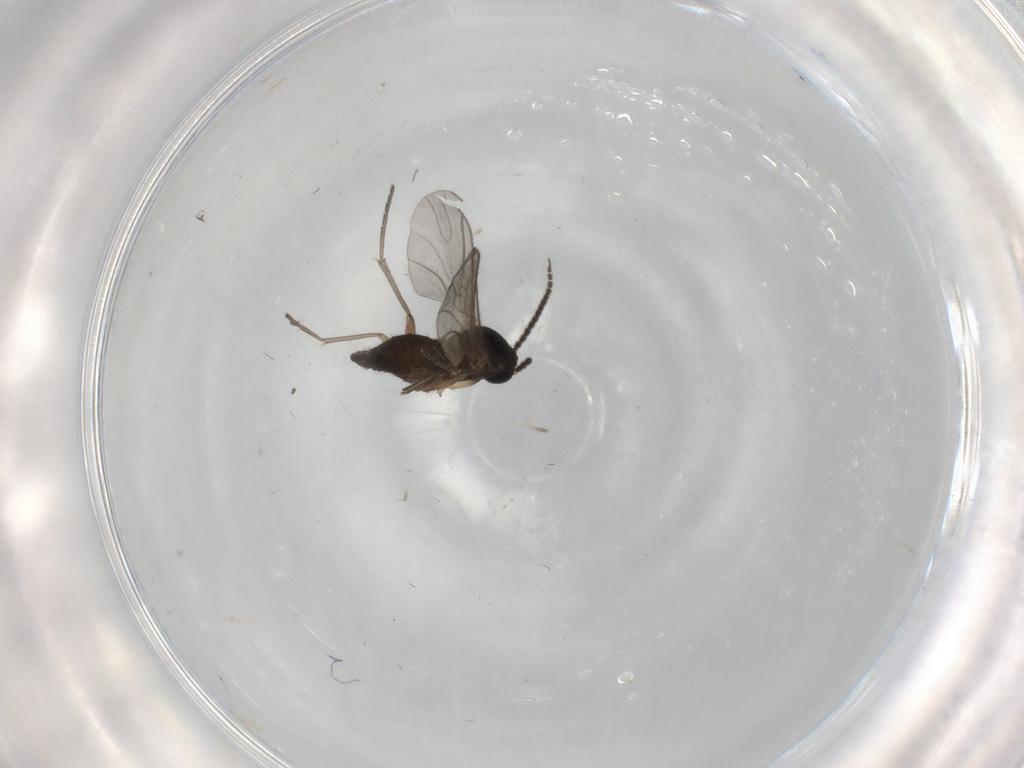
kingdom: Animalia
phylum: Arthropoda
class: Insecta
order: Diptera
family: Sciaridae
